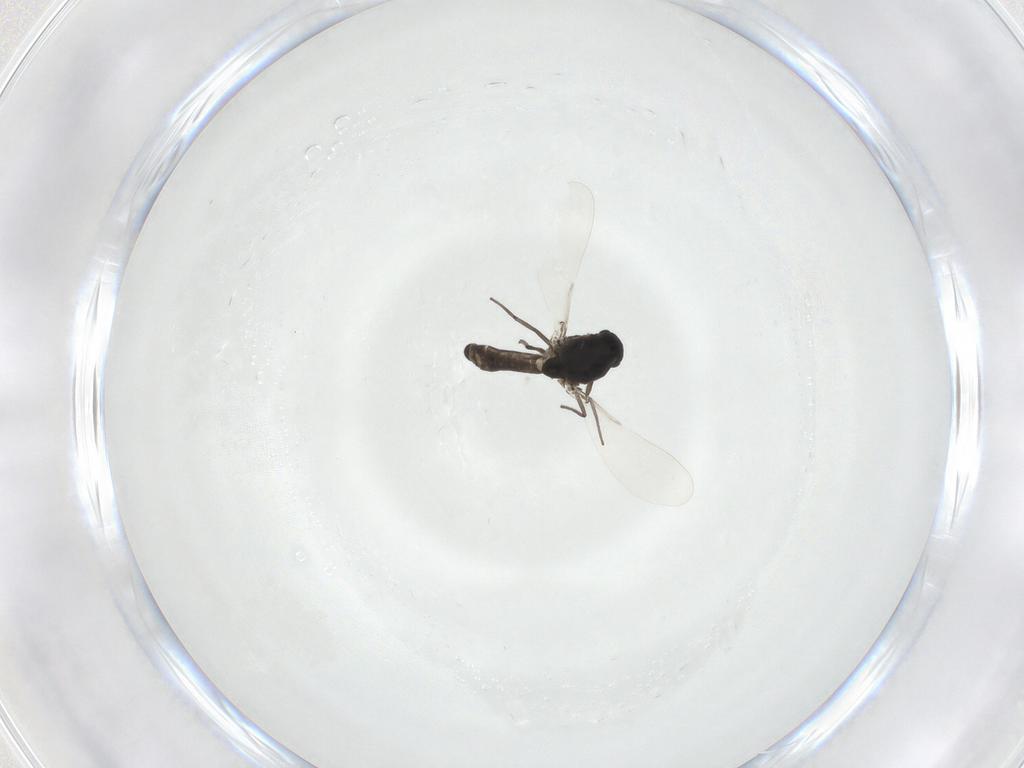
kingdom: Animalia
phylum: Arthropoda
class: Insecta
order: Diptera
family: Chironomidae
